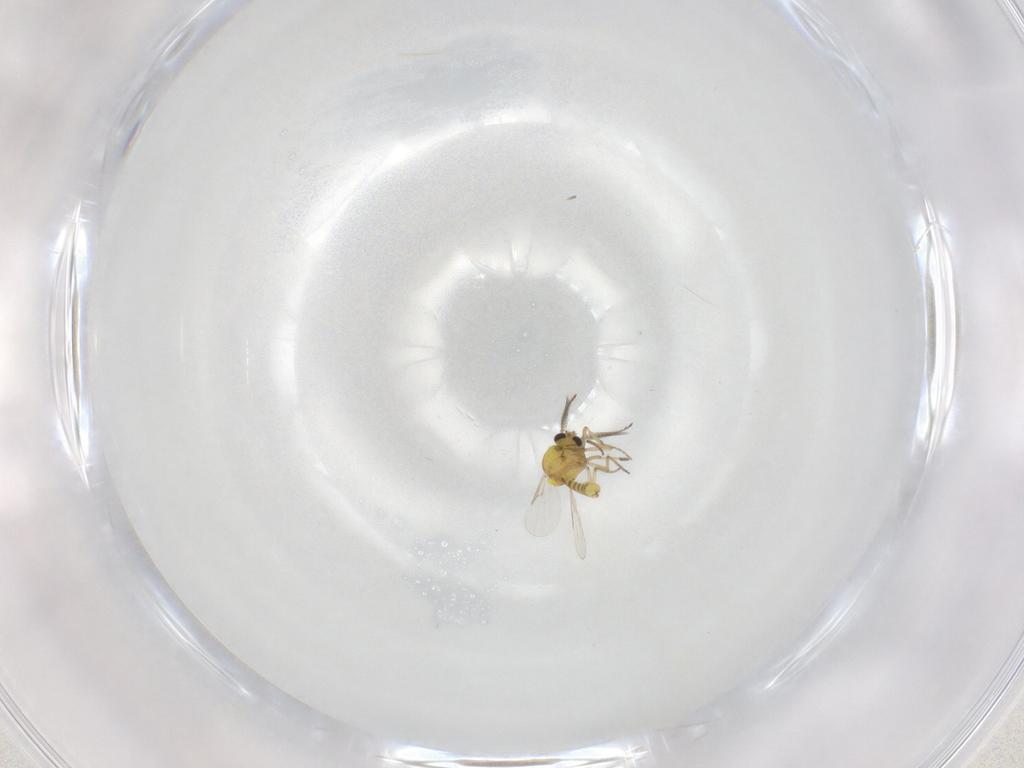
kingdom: Animalia
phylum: Arthropoda
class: Insecta
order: Diptera
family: Ceratopogonidae
